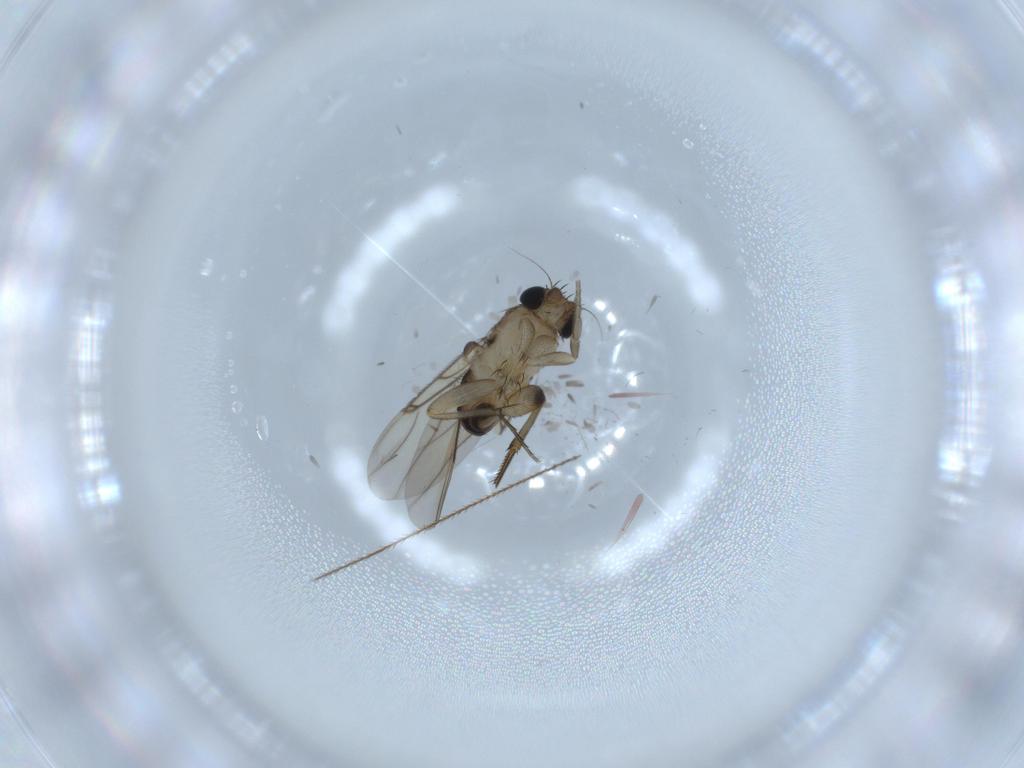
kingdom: Animalia
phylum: Arthropoda
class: Insecta
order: Diptera
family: Phoridae
